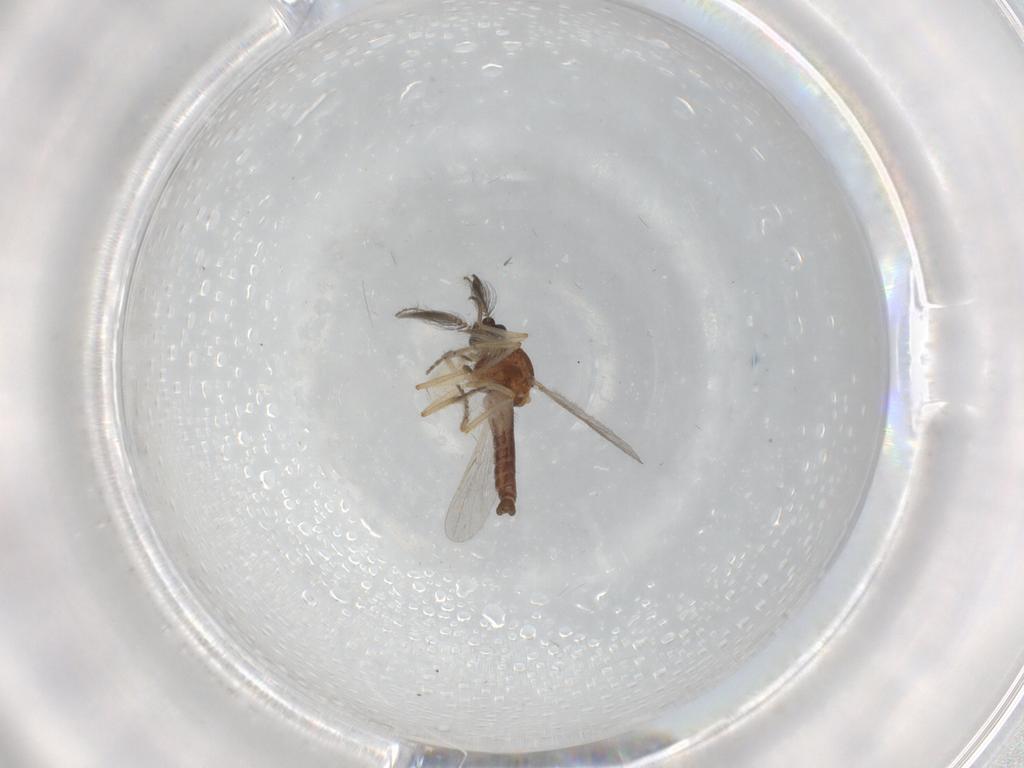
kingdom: Animalia
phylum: Arthropoda
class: Insecta
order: Diptera
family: Ceratopogonidae
